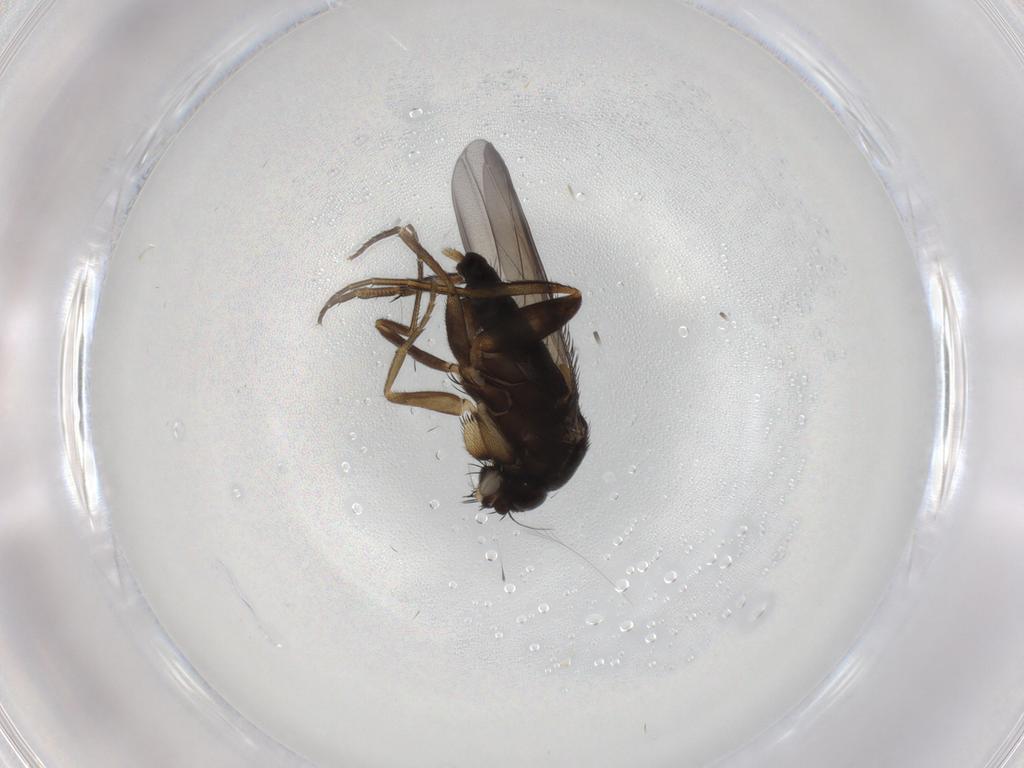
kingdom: Animalia
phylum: Arthropoda
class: Insecta
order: Diptera
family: Phoridae
